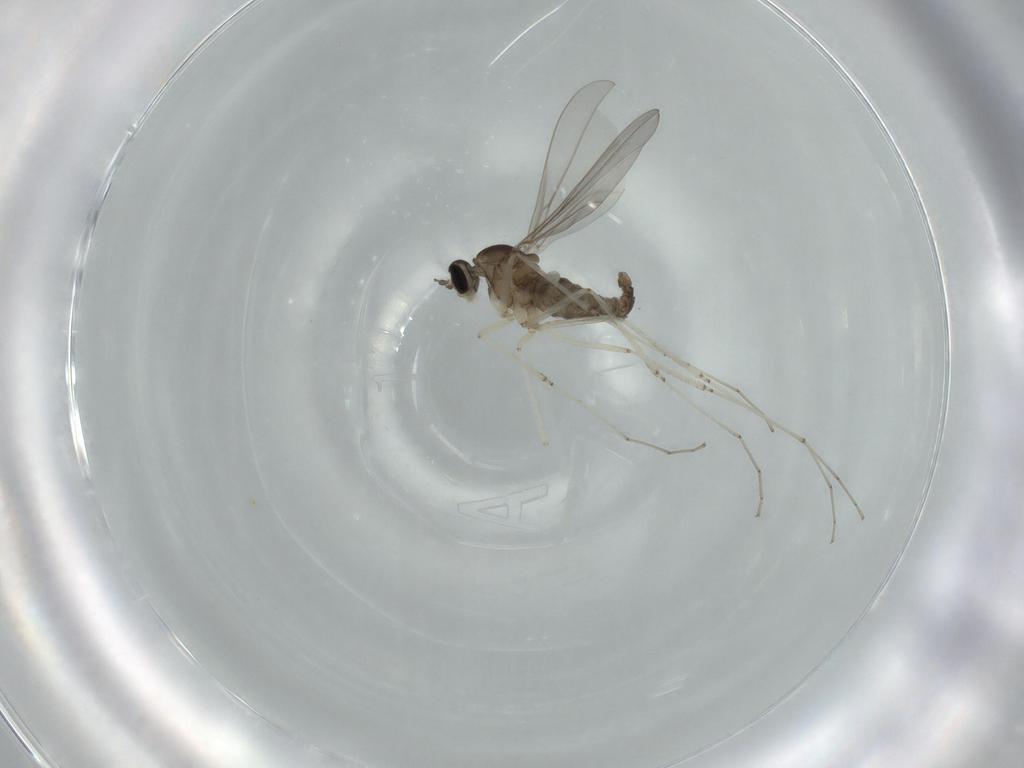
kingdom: Animalia
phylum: Arthropoda
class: Insecta
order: Diptera
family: Cecidomyiidae
